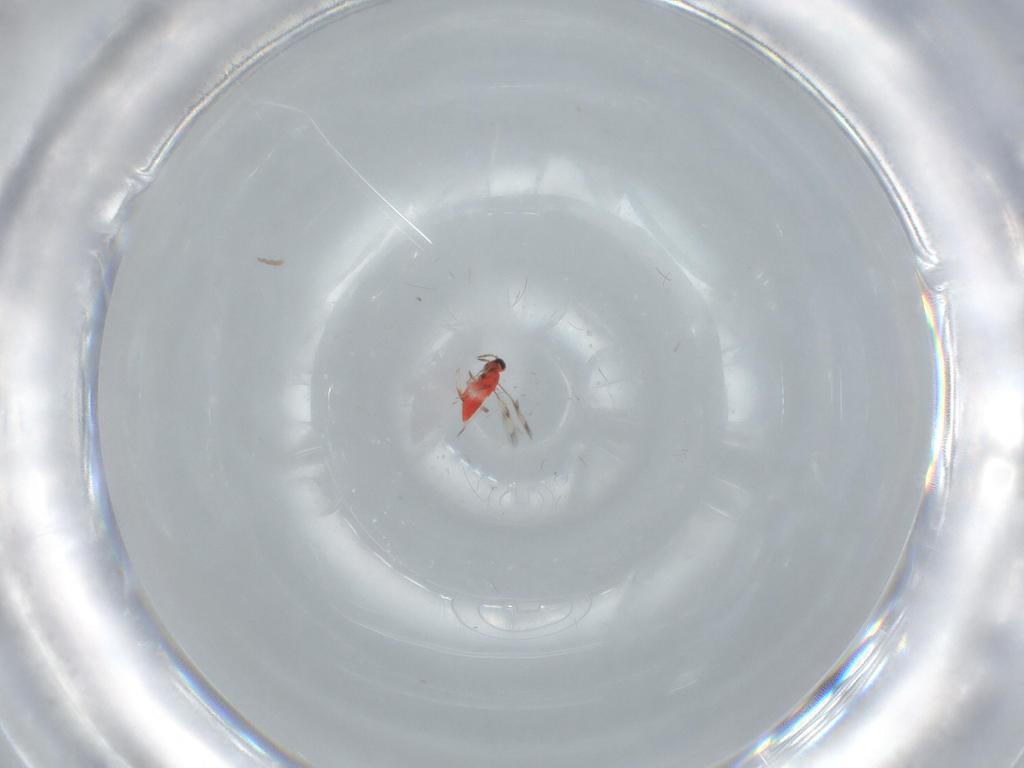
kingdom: Animalia
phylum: Arthropoda
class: Insecta
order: Hymenoptera
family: Trichogrammatidae
